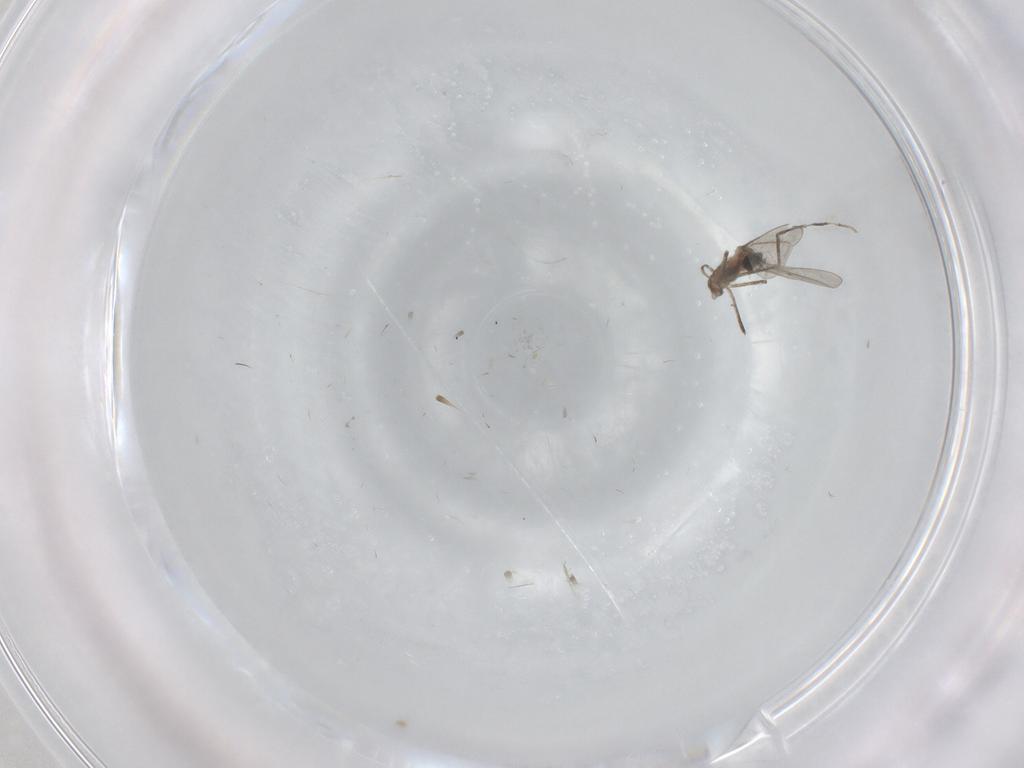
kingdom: Animalia
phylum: Arthropoda
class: Insecta
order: Diptera
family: Cecidomyiidae
